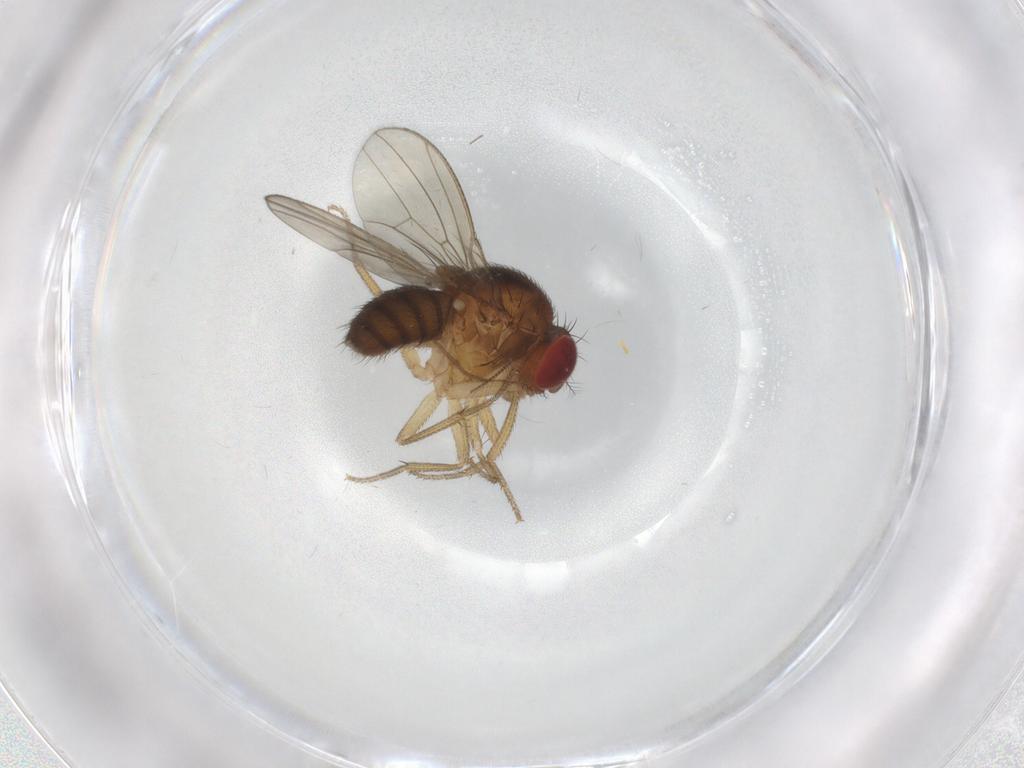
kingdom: Animalia
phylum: Arthropoda
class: Insecta
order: Diptera
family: Drosophilidae
